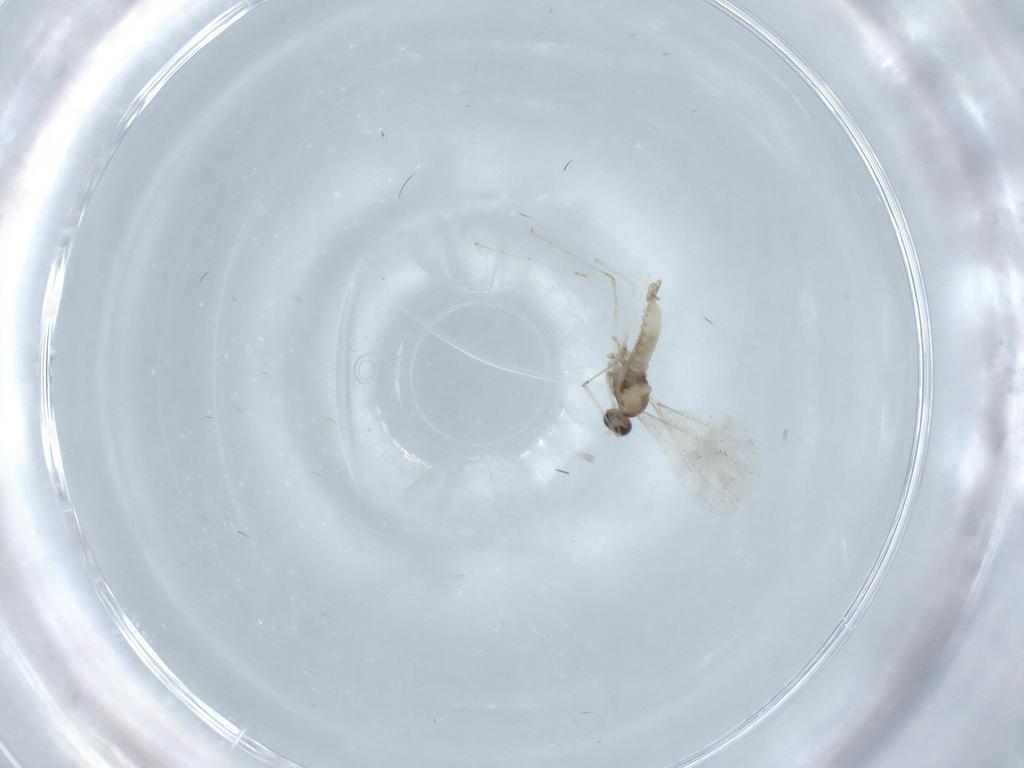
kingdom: Animalia
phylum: Arthropoda
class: Insecta
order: Diptera
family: Cecidomyiidae
